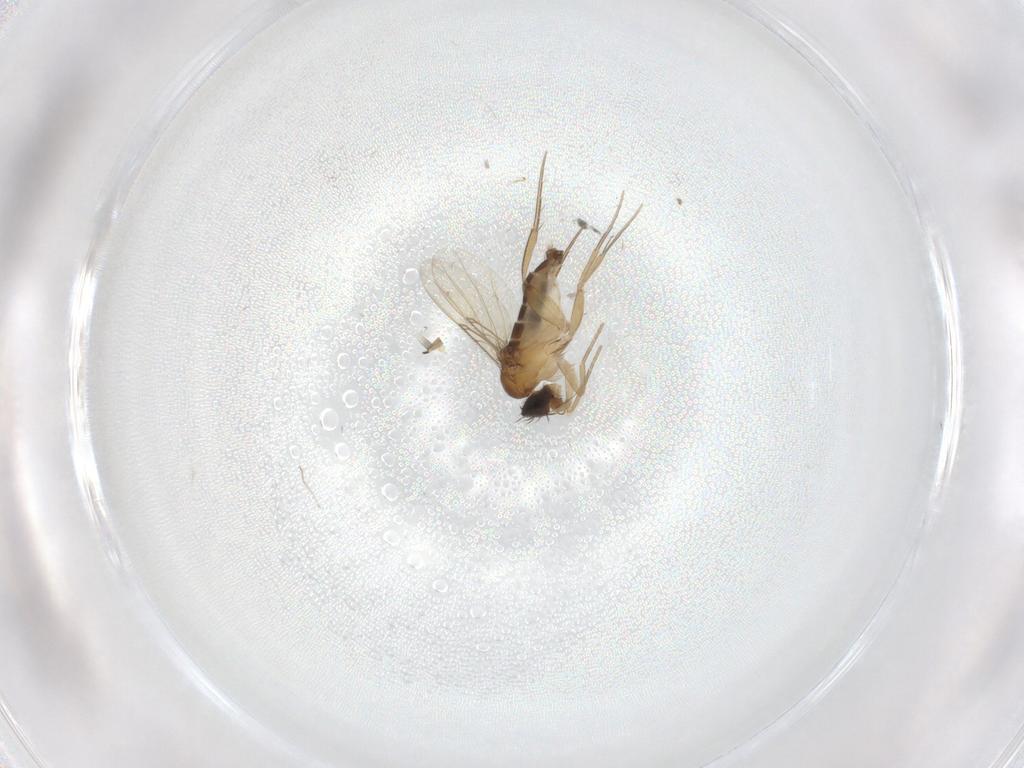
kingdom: Animalia
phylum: Arthropoda
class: Insecta
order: Diptera
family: Phoridae
